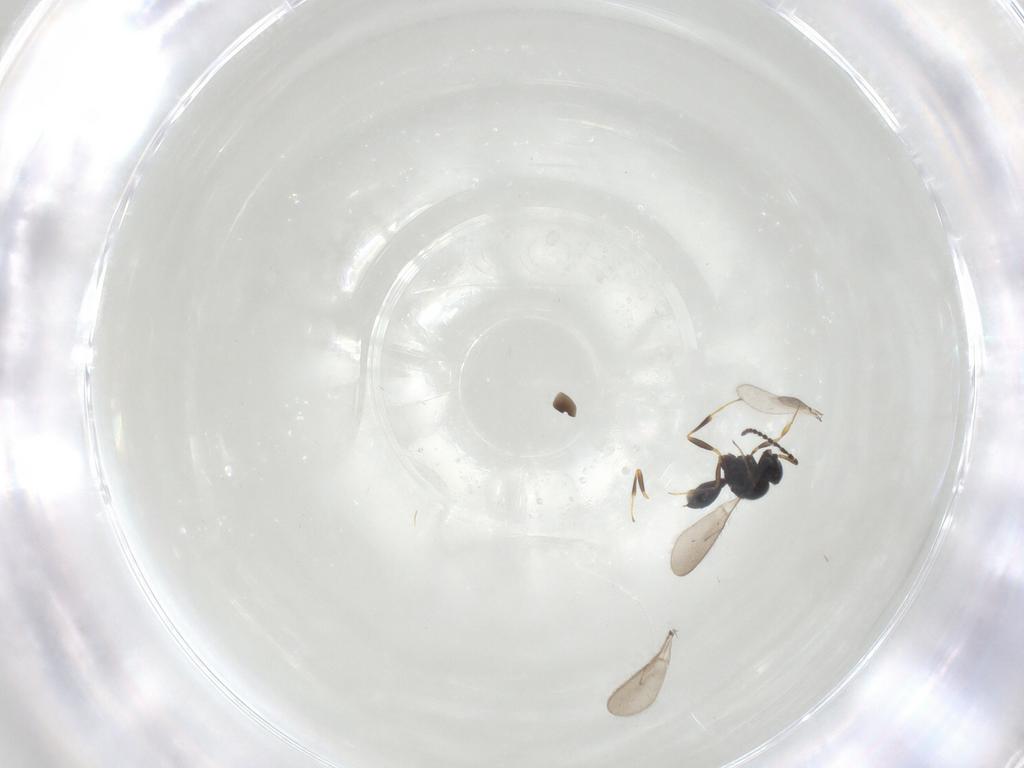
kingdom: Animalia
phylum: Arthropoda
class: Insecta
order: Hymenoptera
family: Scelionidae
